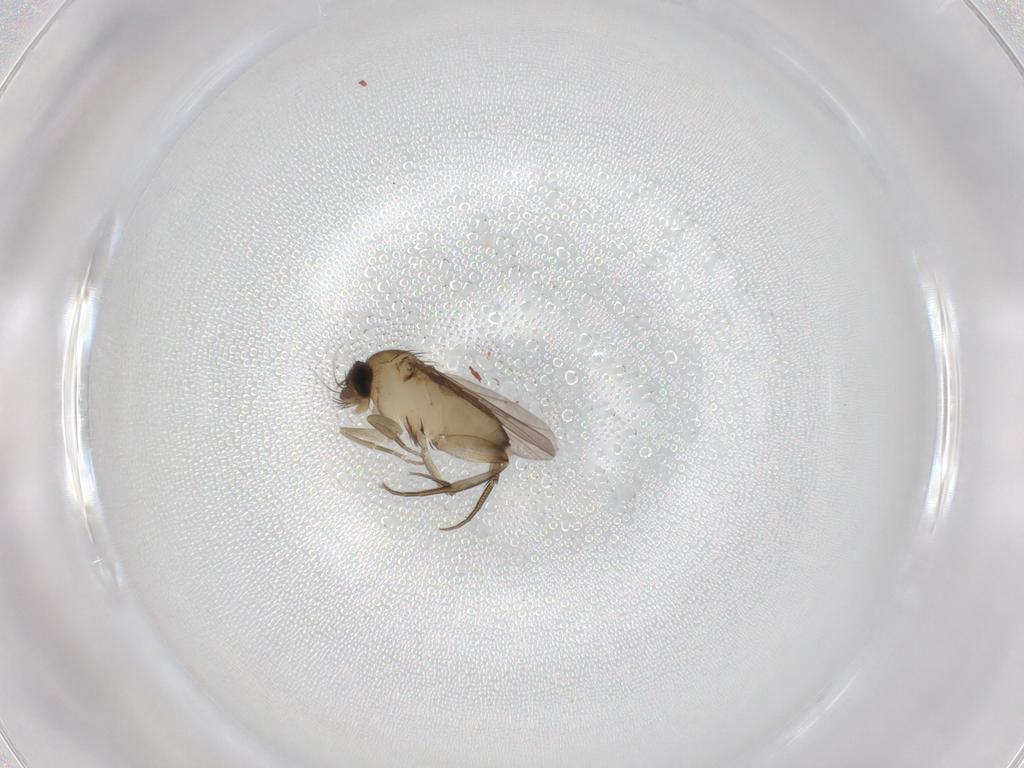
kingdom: Animalia
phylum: Arthropoda
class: Insecta
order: Diptera
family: Phoridae
